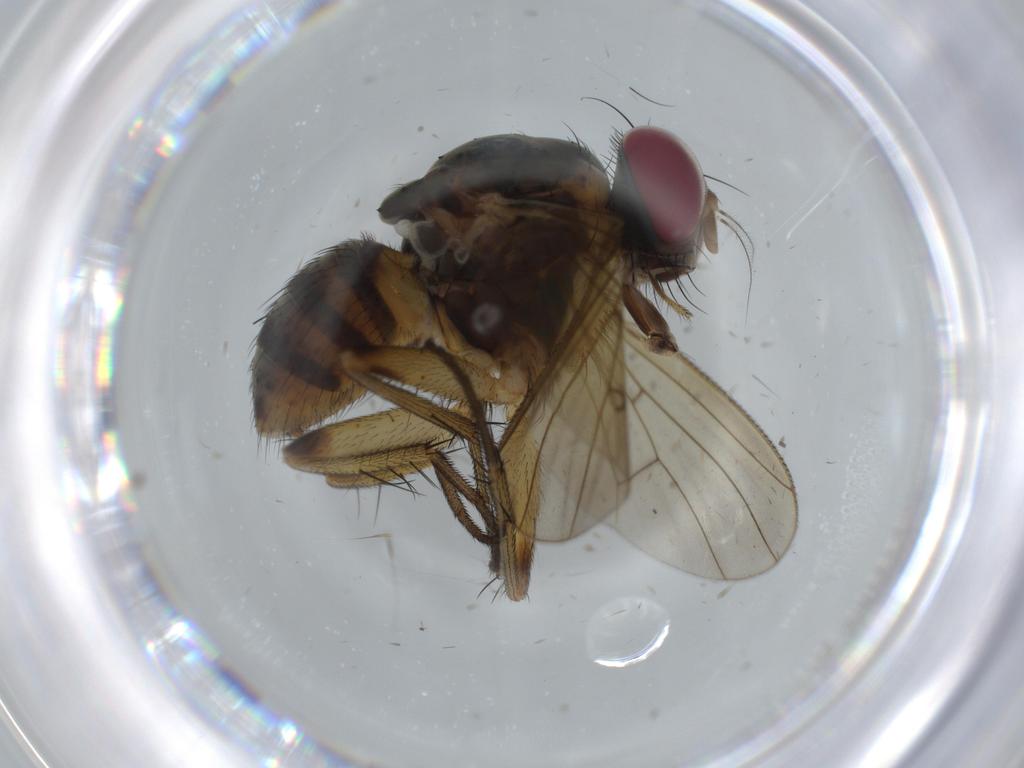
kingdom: Animalia
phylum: Arthropoda
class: Insecta
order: Diptera
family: Muscidae
